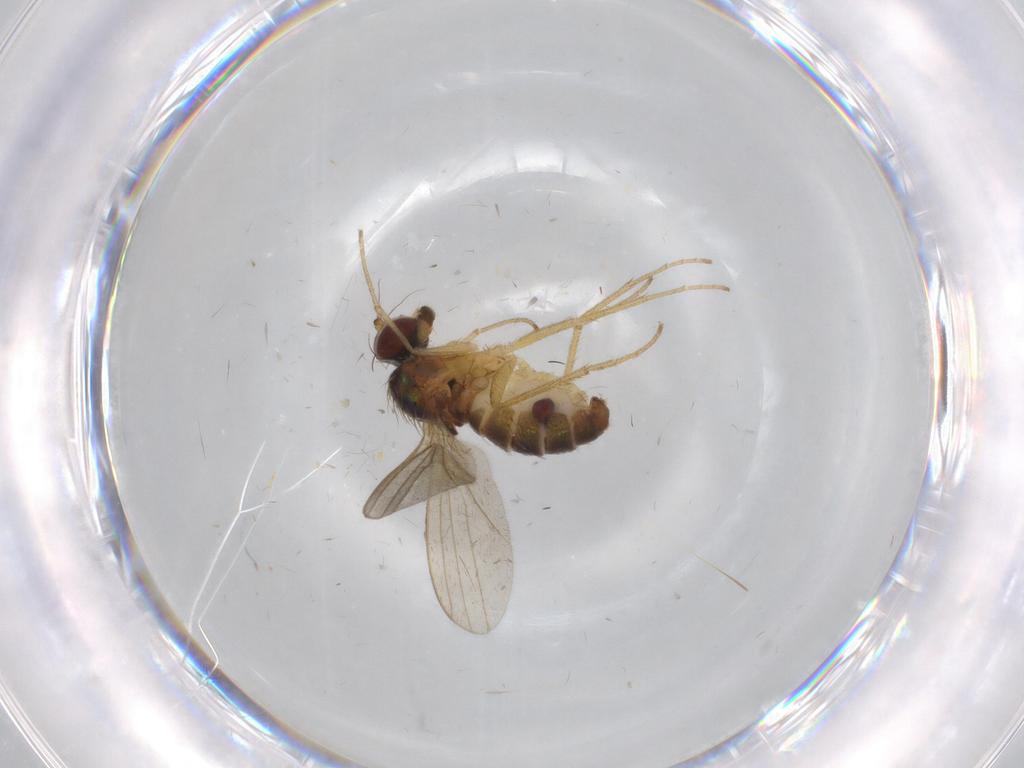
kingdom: Animalia
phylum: Arthropoda
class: Insecta
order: Diptera
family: Dolichopodidae
